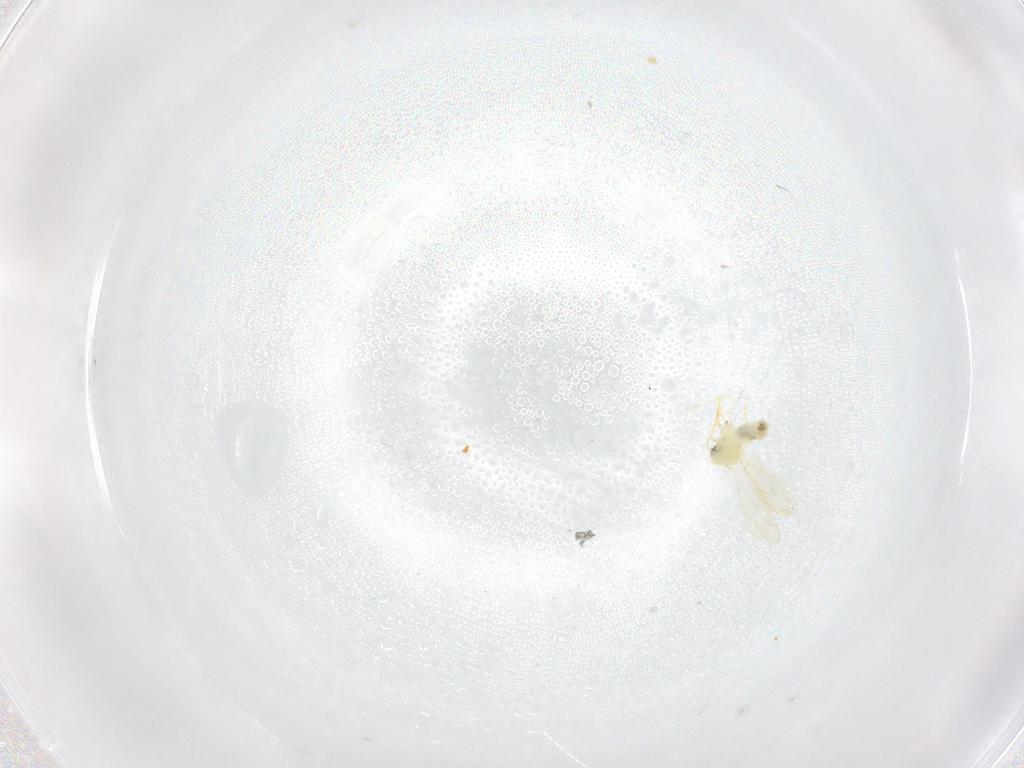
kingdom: Animalia
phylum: Arthropoda
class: Insecta
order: Hemiptera
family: Aleyrodidae
